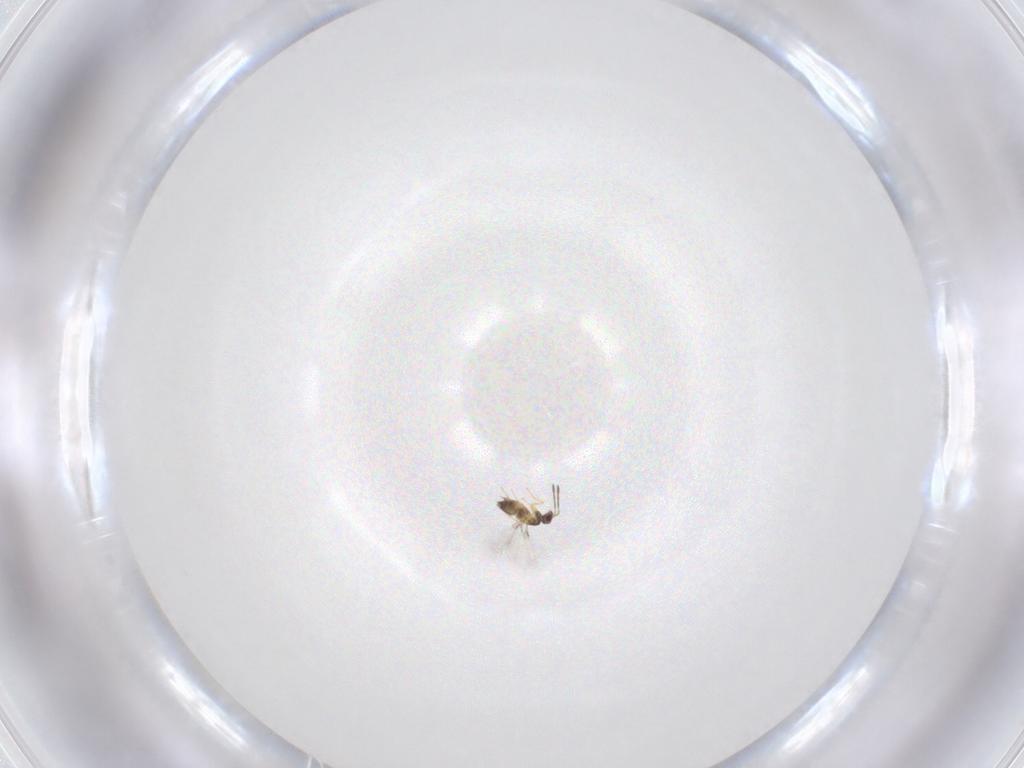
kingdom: Animalia
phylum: Arthropoda
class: Insecta
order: Hymenoptera
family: Mymaridae
